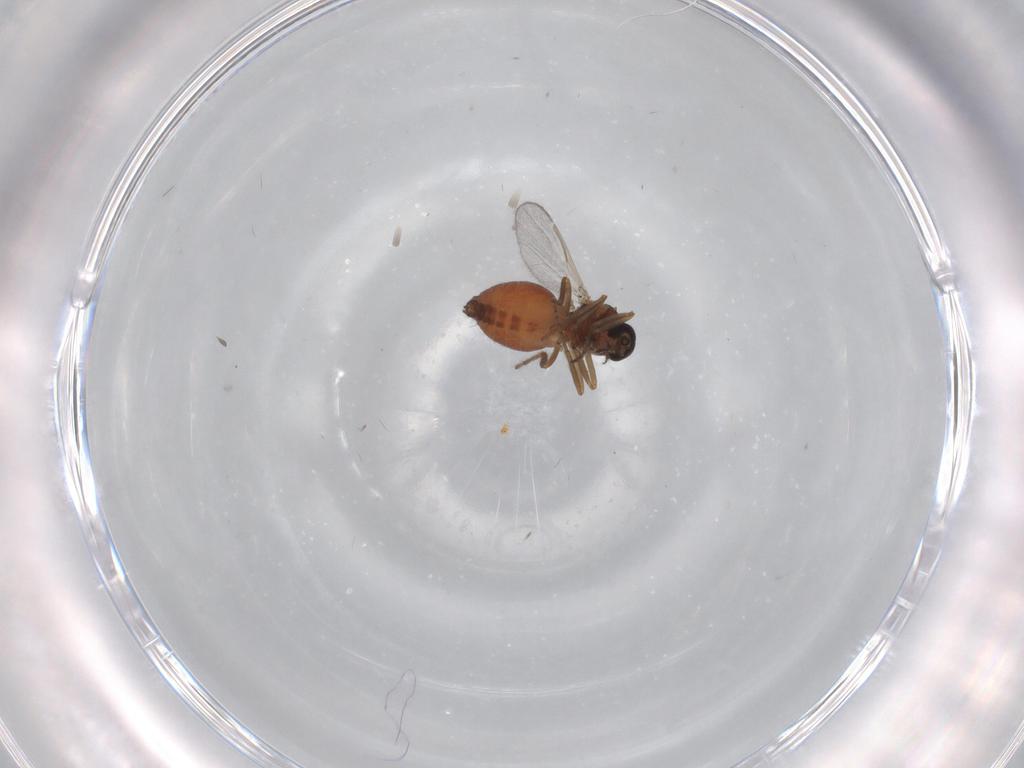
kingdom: Animalia
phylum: Arthropoda
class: Insecta
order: Diptera
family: Ceratopogonidae
